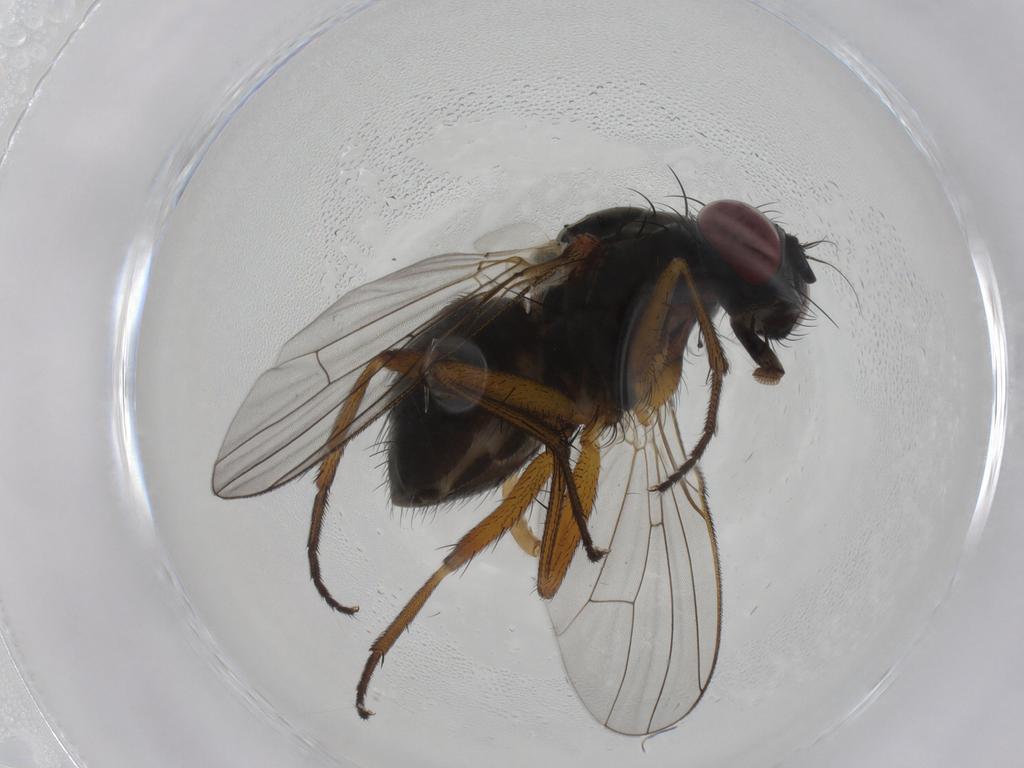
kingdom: Animalia
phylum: Arthropoda
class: Insecta
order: Diptera
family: Muscidae
